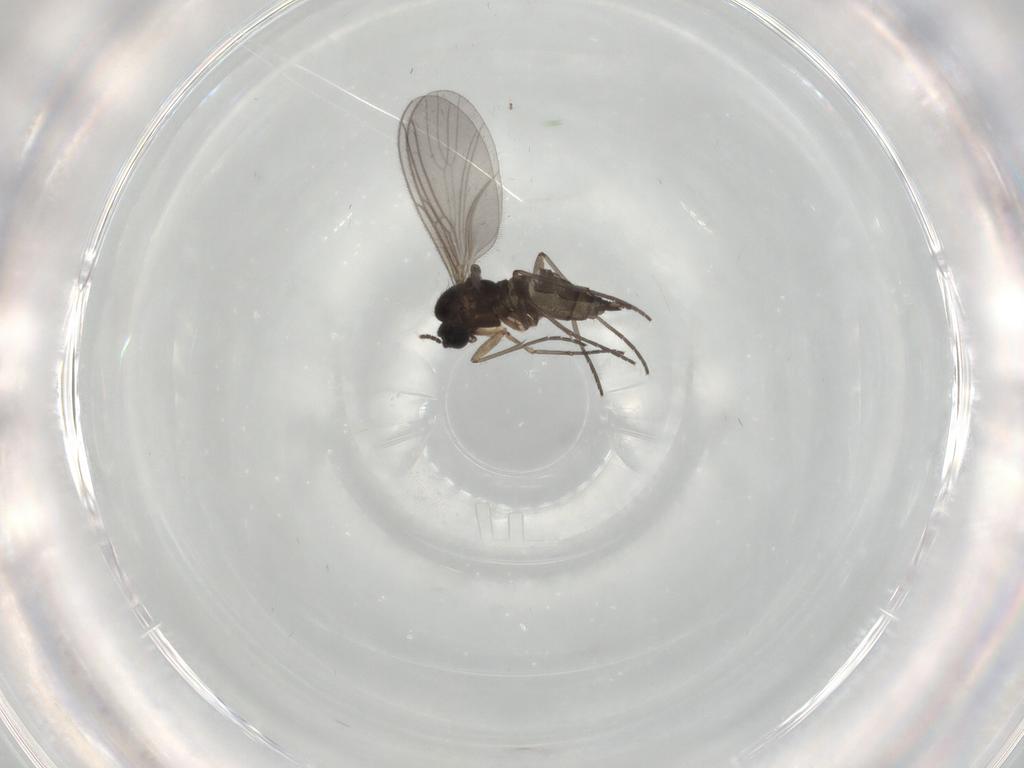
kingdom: Animalia
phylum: Arthropoda
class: Insecta
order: Diptera
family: Sciaridae
